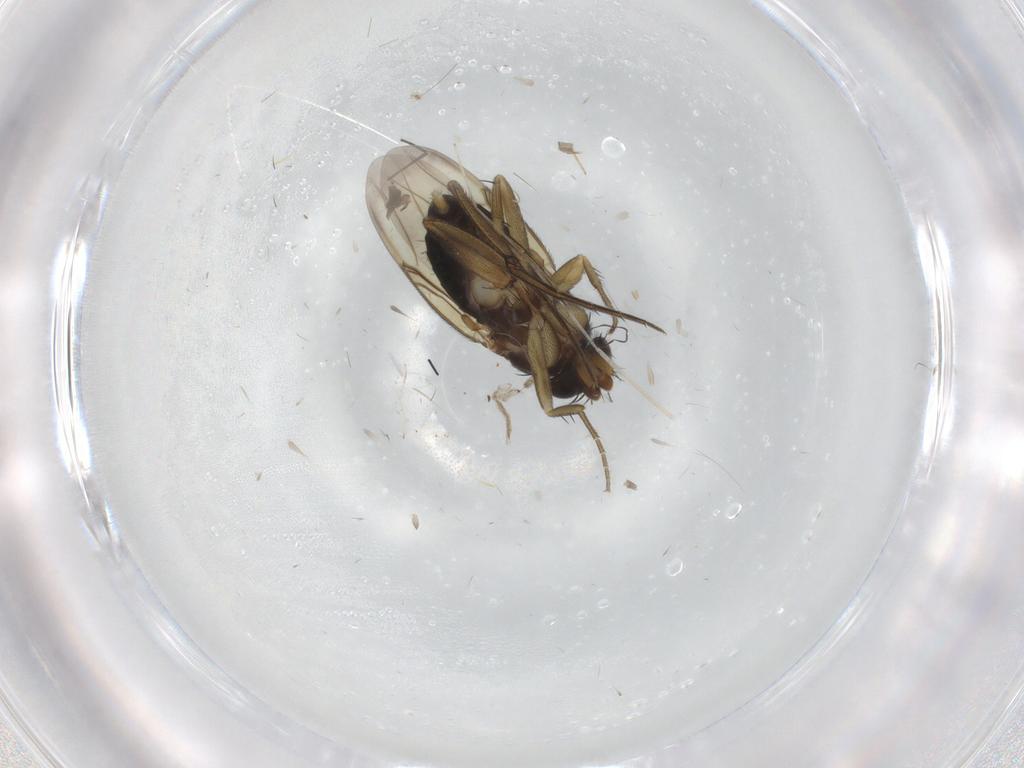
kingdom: Animalia
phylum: Arthropoda
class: Insecta
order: Diptera
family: Phoridae
